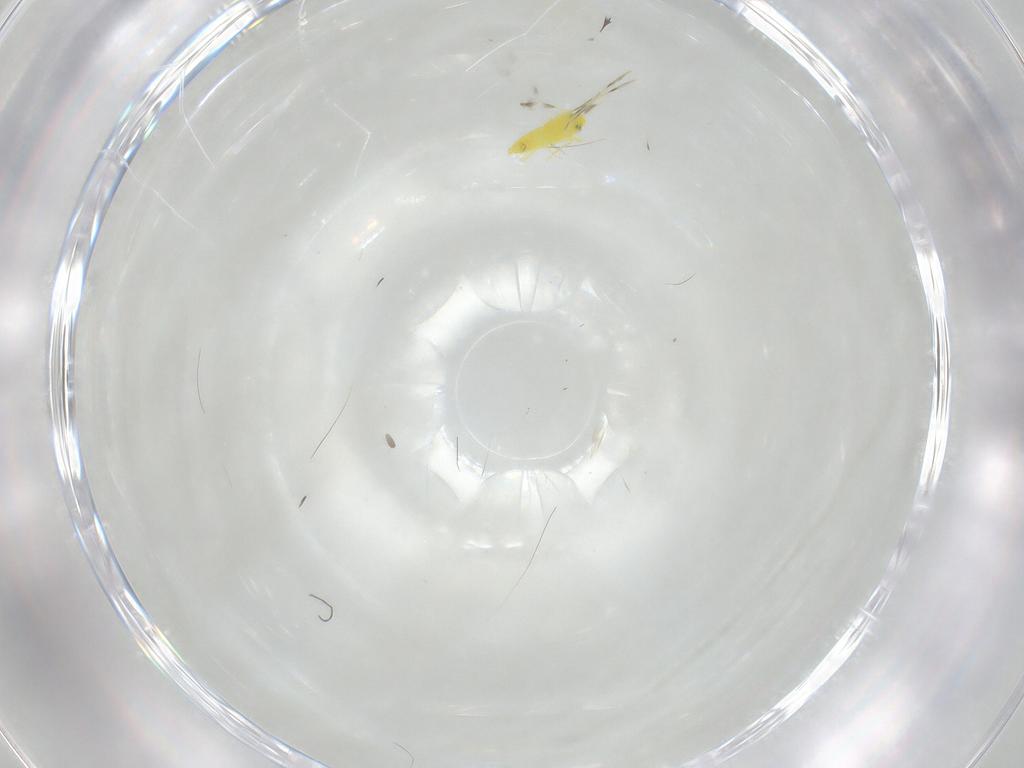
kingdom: Animalia
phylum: Arthropoda
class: Insecta
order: Hemiptera
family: Aleyrodidae
